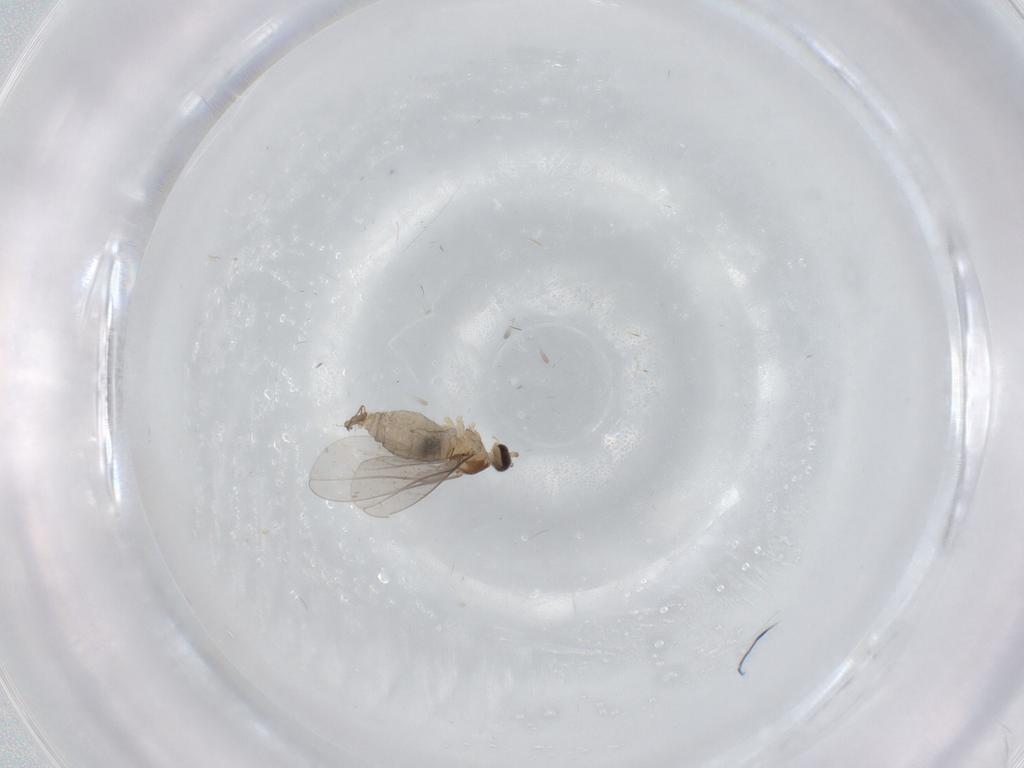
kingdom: Animalia
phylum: Arthropoda
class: Insecta
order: Diptera
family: Cecidomyiidae
